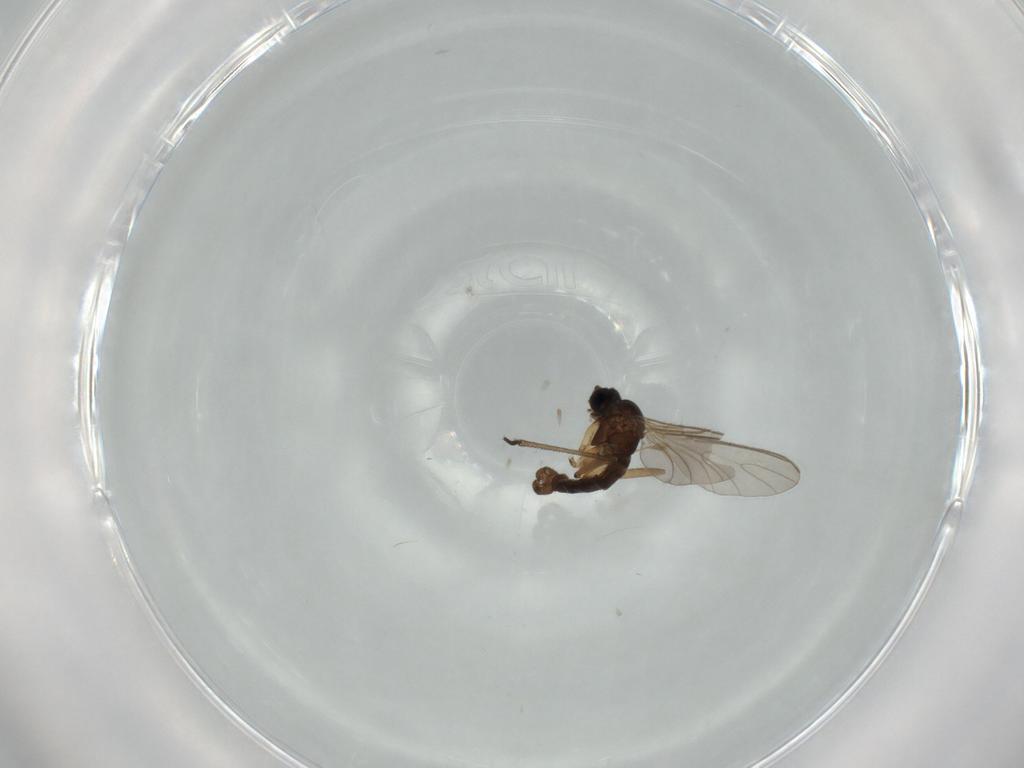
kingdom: Animalia
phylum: Arthropoda
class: Insecta
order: Diptera
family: Sciaridae
